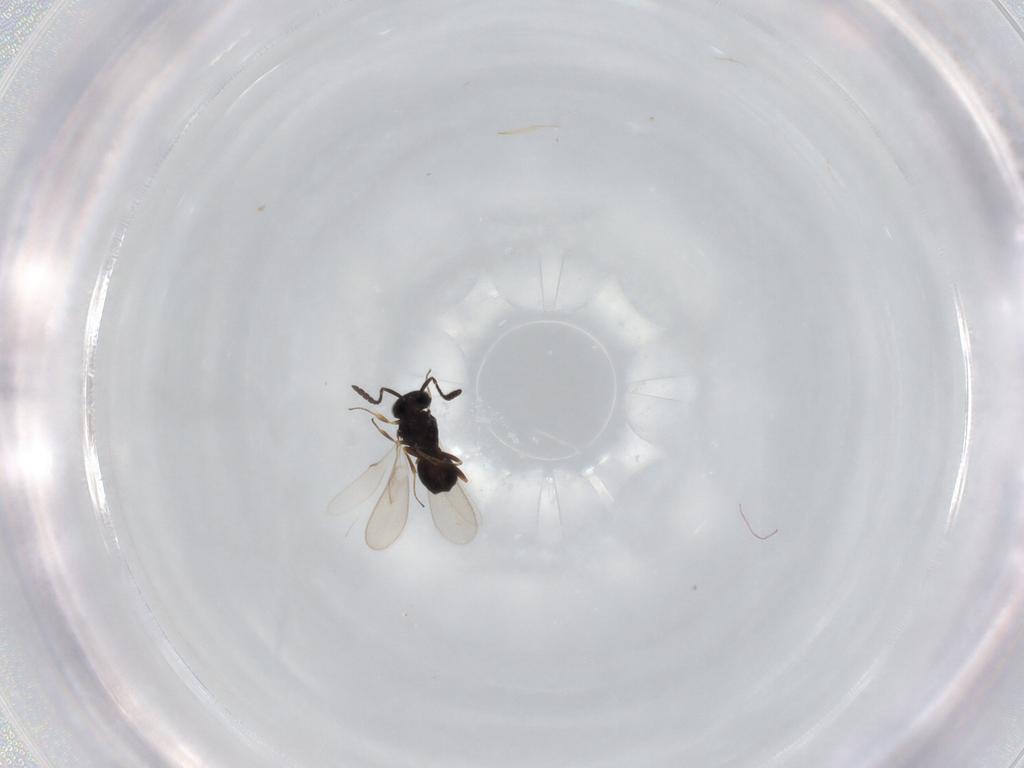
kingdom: Animalia
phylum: Arthropoda
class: Insecta
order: Hymenoptera
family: Scelionidae
